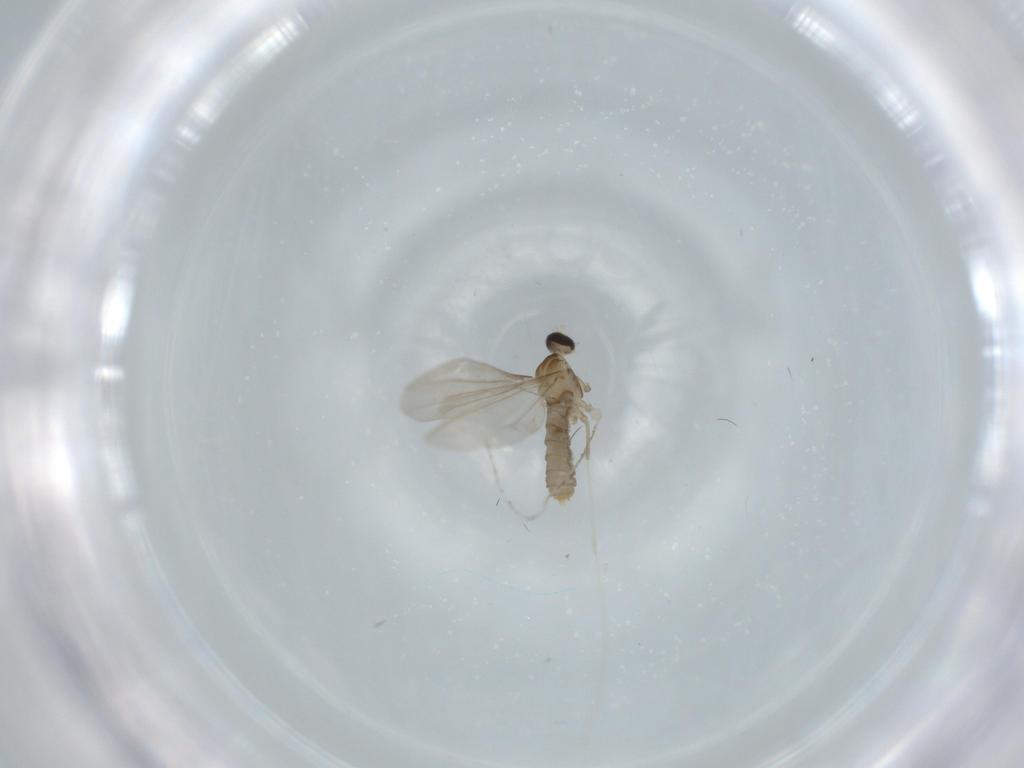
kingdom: Animalia
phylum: Arthropoda
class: Insecta
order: Diptera
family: Cecidomyiidae
